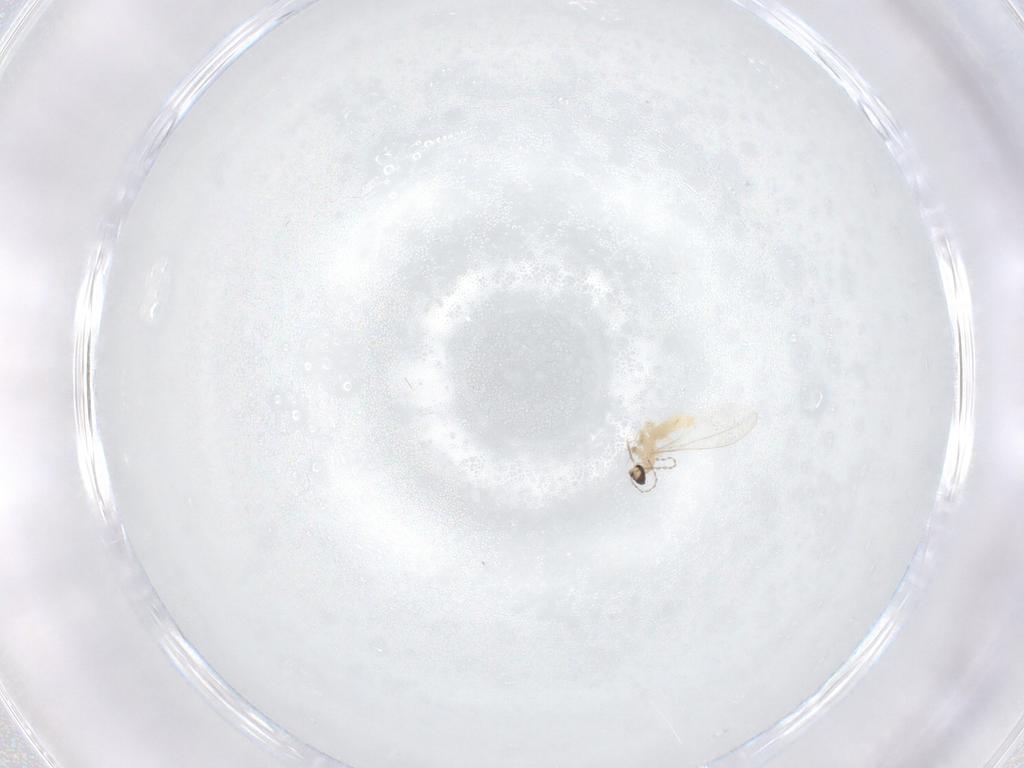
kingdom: Animalia
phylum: Arthropoda
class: Insecta
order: Diptera
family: Cecidomyiidae
